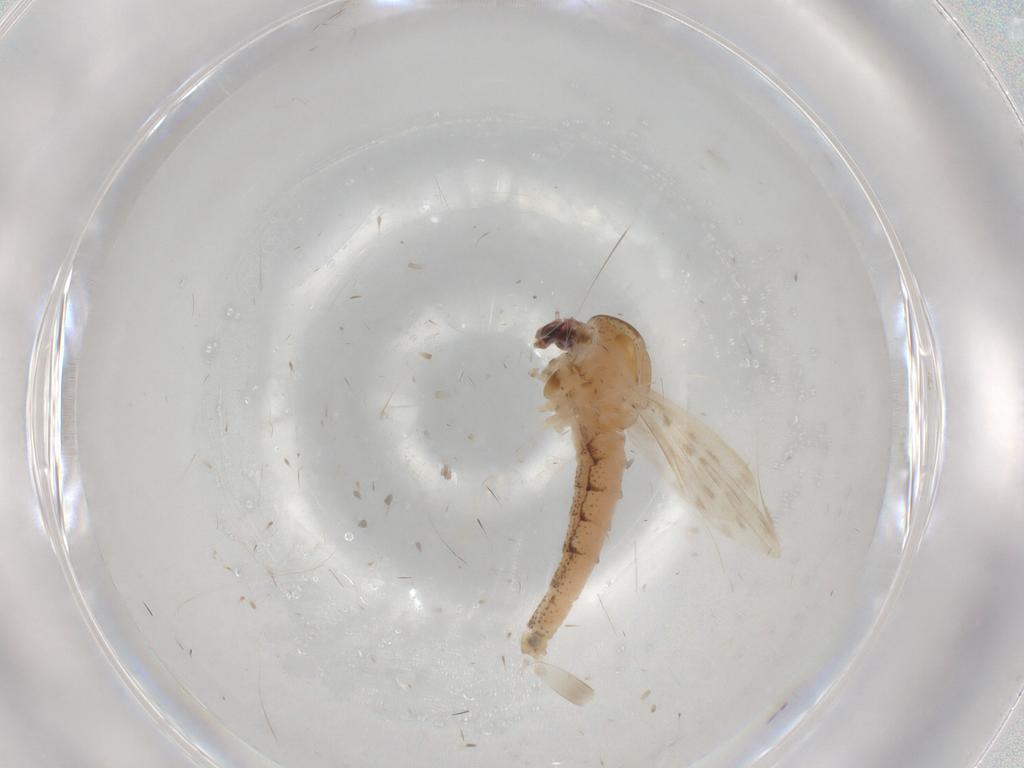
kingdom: Animalia
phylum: Arthropoda
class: Insecta
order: Diptera
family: Chaoboridae
